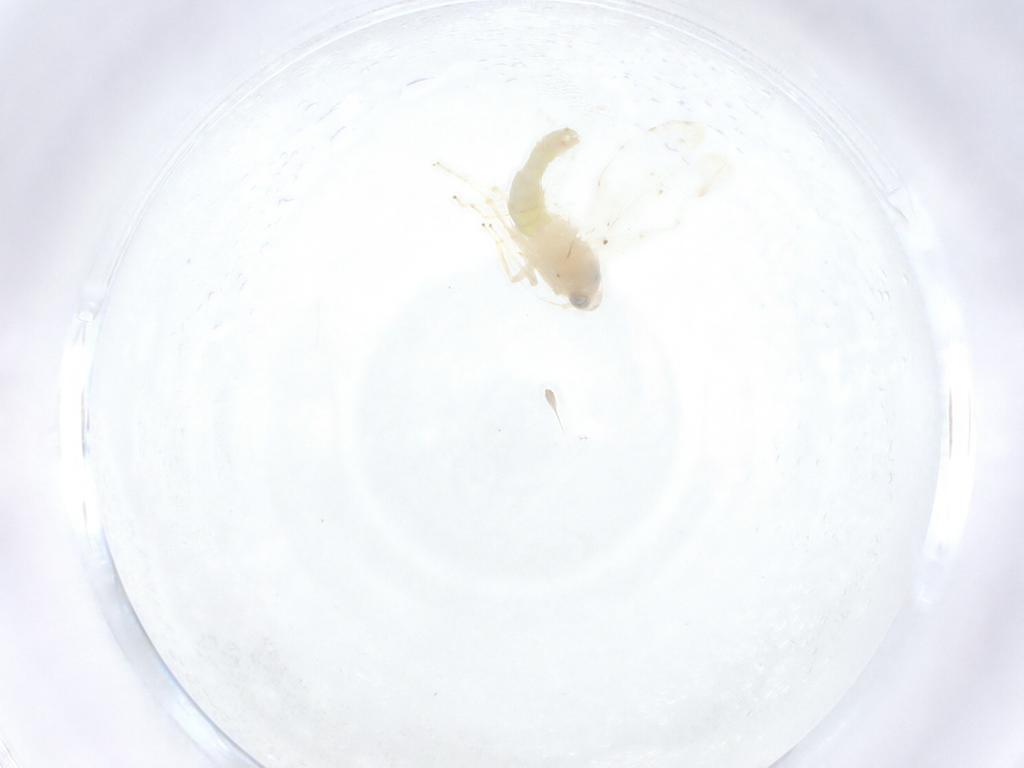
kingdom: Animalia
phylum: Arthropoda
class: Insecta
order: Hemiptera
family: Cicadellidae
